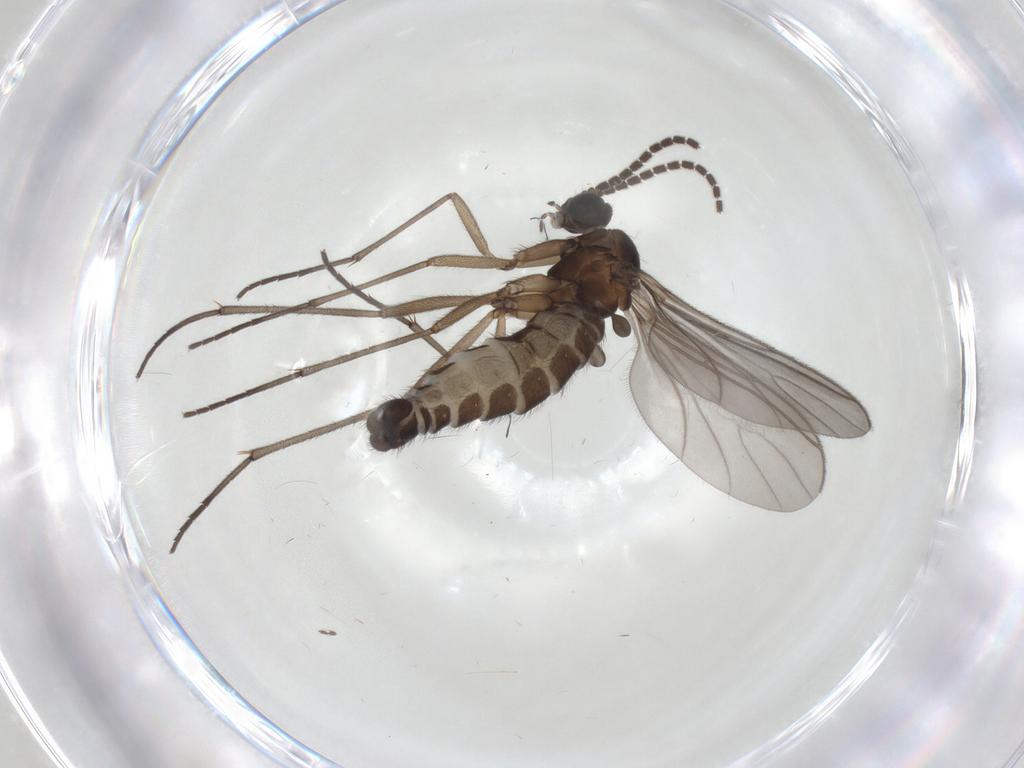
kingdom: Animalia
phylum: Arthropoda
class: Insecta
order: Diptera
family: Sciaridae
